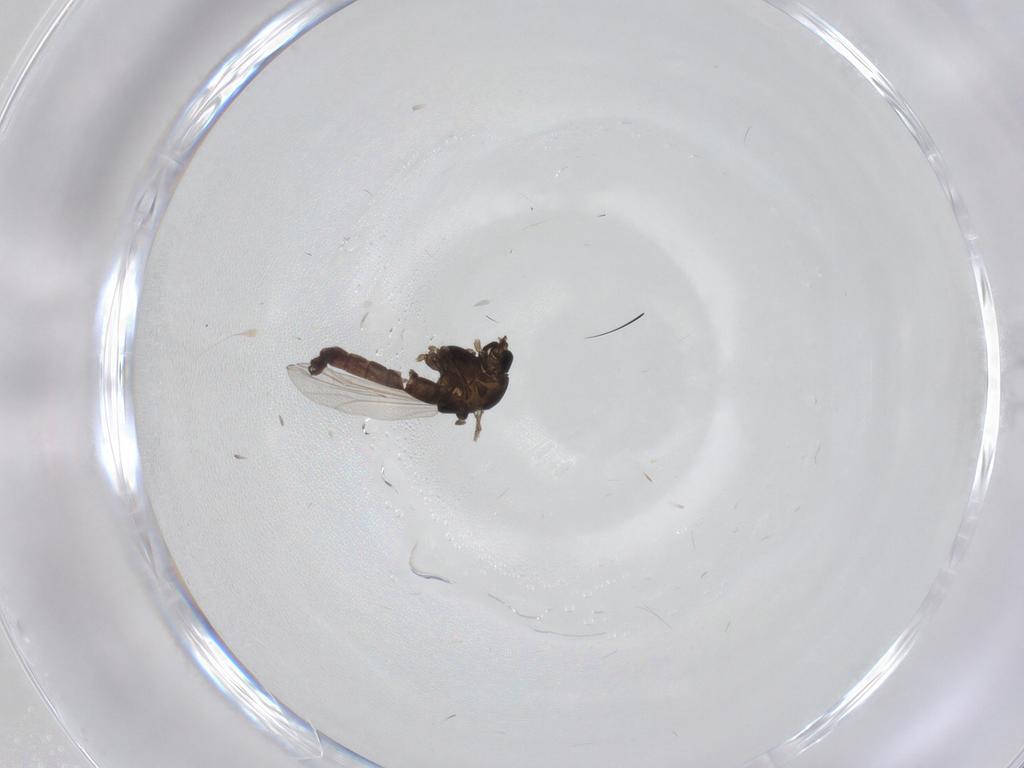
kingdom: Animalia
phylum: Arthropoda
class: Insecta
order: Diptera
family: Chironomidae
